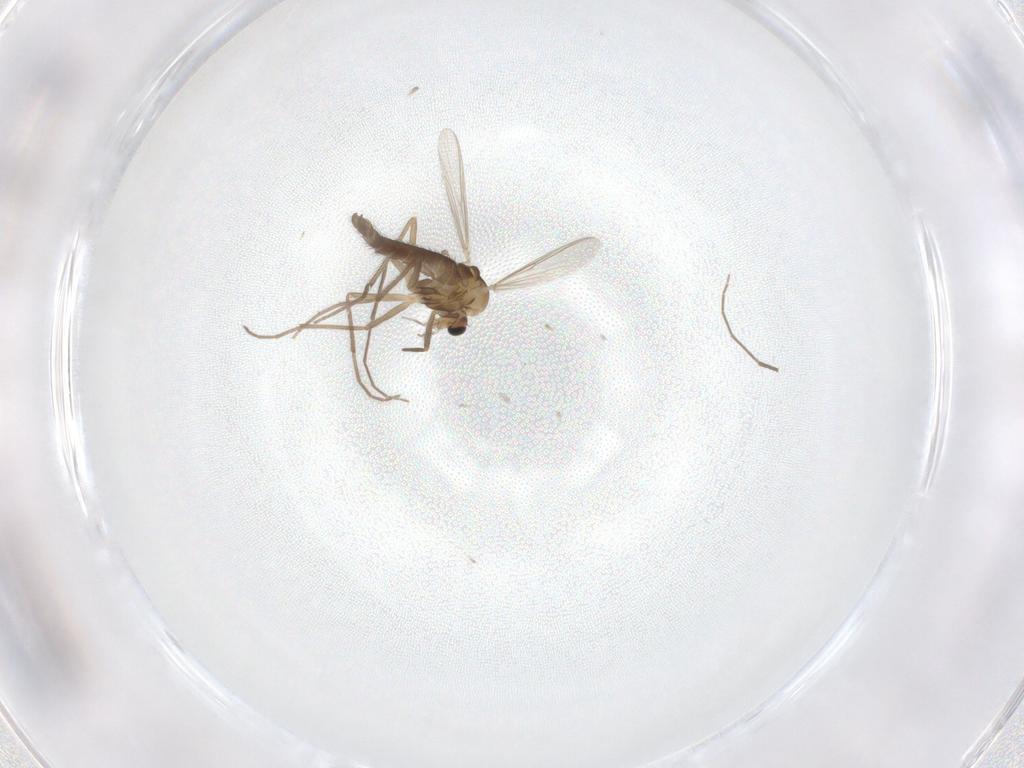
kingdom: Animalia
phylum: Arthropoda
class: Insecta
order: Diptera
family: Chironomidae
